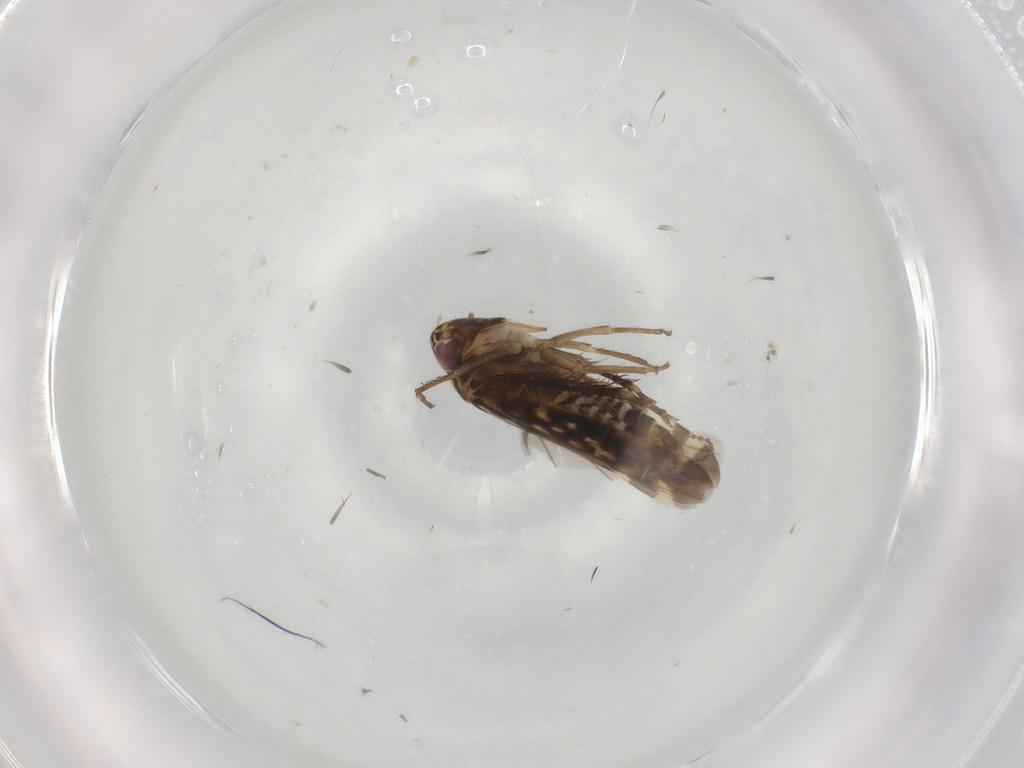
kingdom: Animalia
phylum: Arthropoda
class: Insecta
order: Hemiptera
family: Cicadellidae
